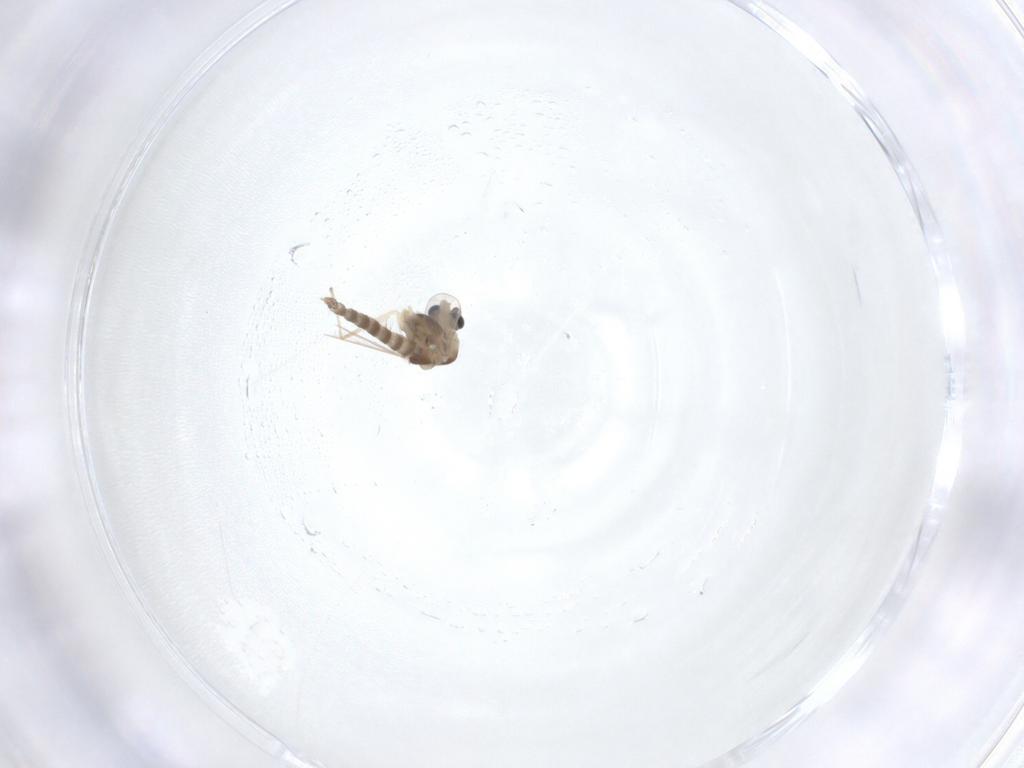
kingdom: Animalia
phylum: Arthropoda
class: Insecta
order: Diptera
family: Chironomidae
